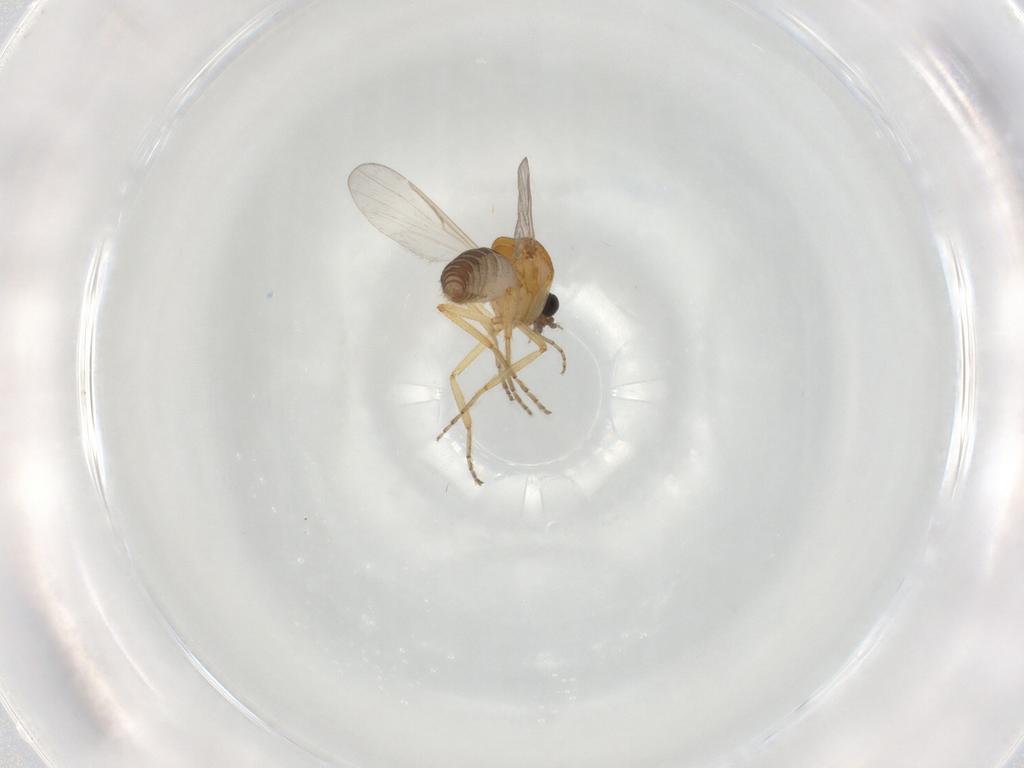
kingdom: Animalia
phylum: Arthropoda
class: Insecta
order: Diptera
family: Ceratopogonidae
